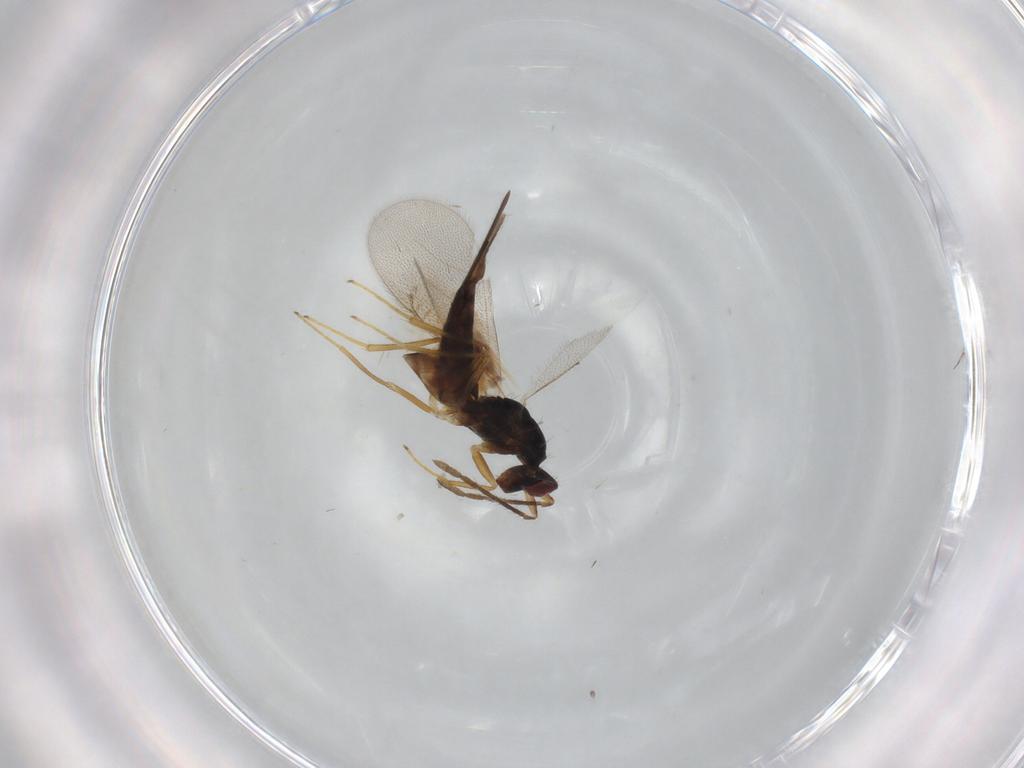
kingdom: Animalia
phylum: Arthropoda
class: Insecta
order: Hymenoptera
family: Eulophidae
